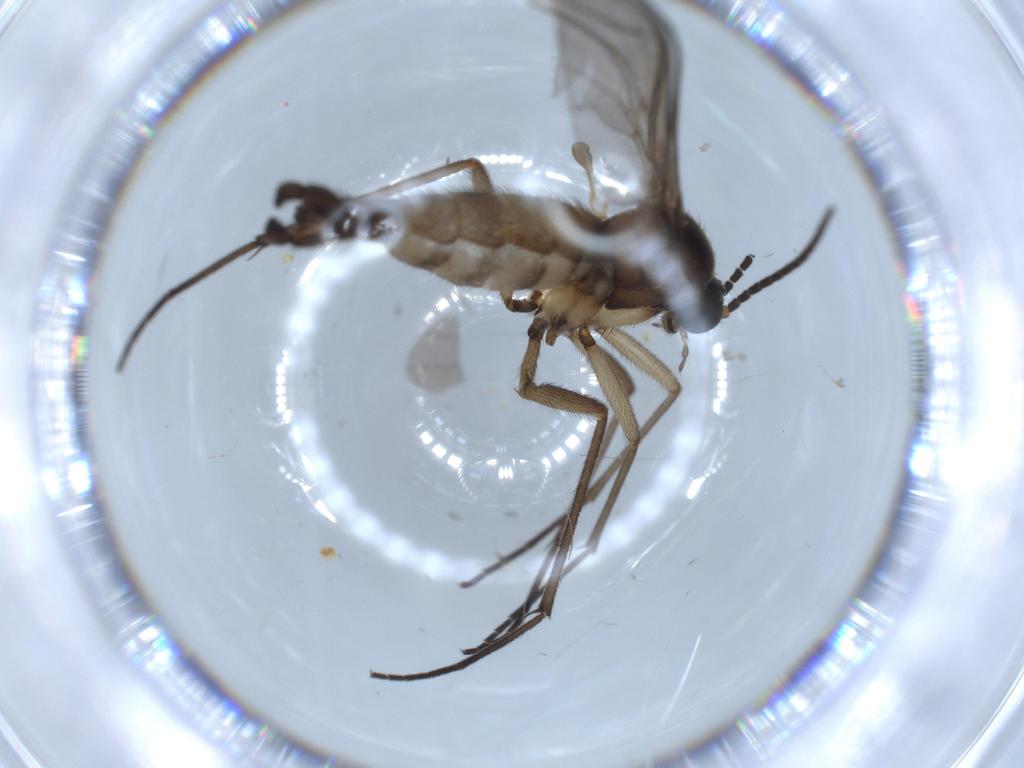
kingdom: Animalia
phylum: Arthropoda
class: Insecta
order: Diptera
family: Sciaridae
